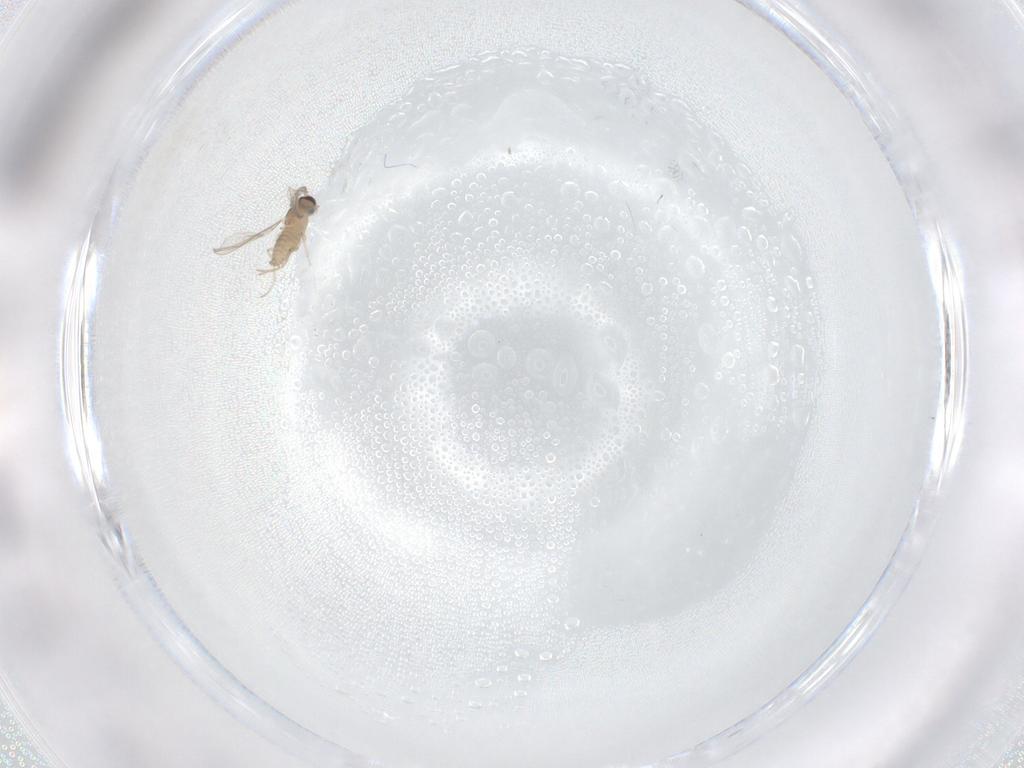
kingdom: Animalia
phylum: Arthropoda
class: Insecta
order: Diptera
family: Cecidomyiidae
